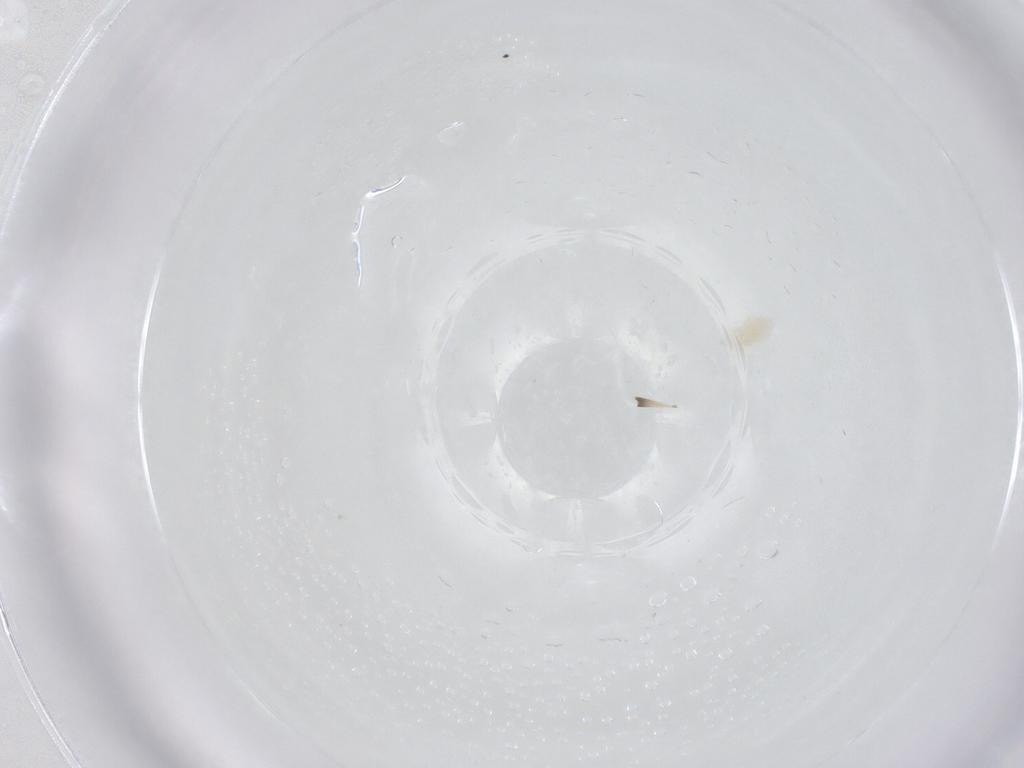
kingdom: Animalia
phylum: Arthropoda
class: Arachnida
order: Trombidiformes
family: Eupodidae
